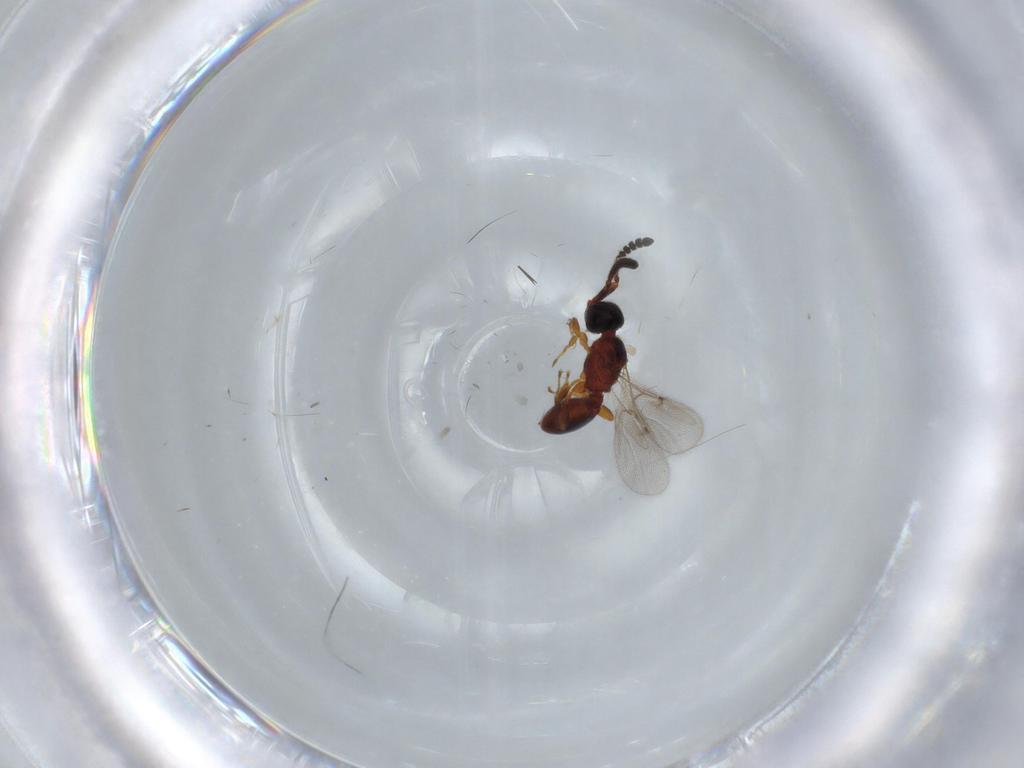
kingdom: Animalia
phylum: Arthropoda
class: Insecta
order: Hymenoptera
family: Diapriidae
